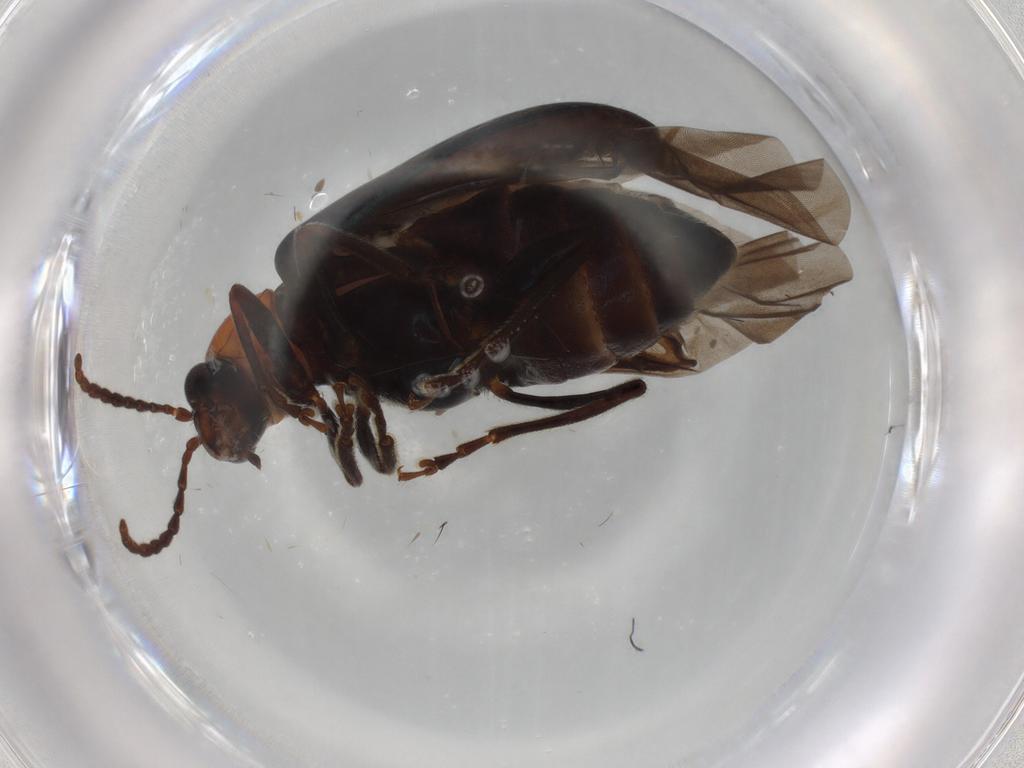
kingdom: Animalia
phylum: Arthropoda
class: Insecta
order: Coleoptera
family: Chrysomelidae
